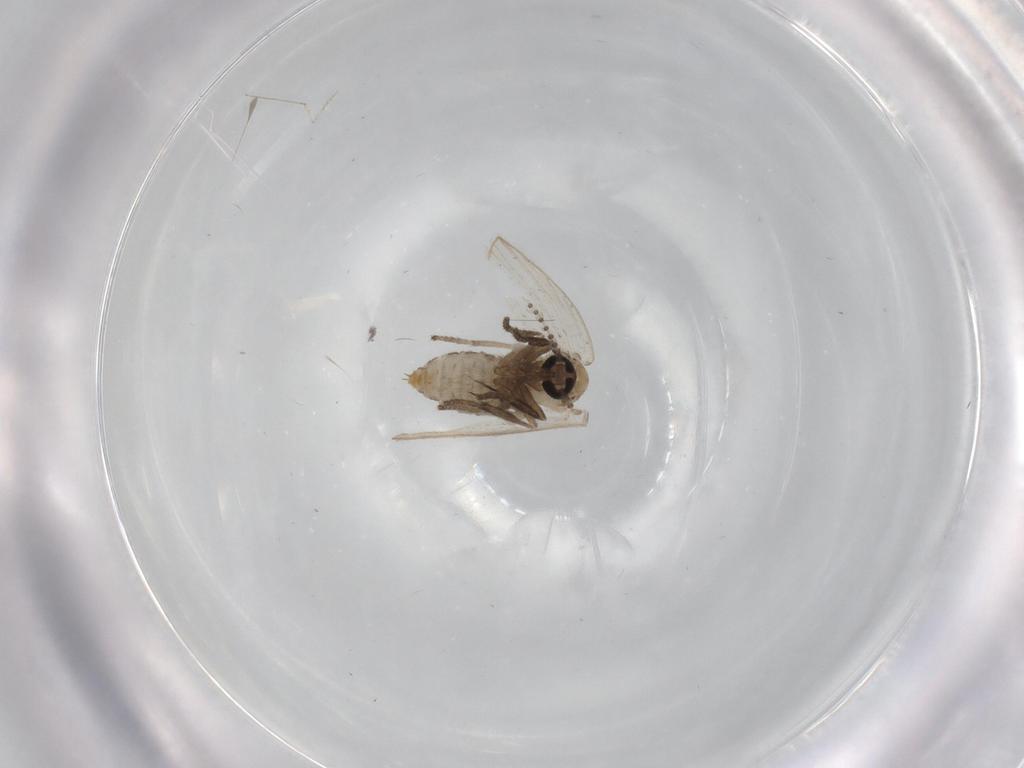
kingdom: Animalia
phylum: Arthropoda
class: Insecta
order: Diptera
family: Psychodidae
